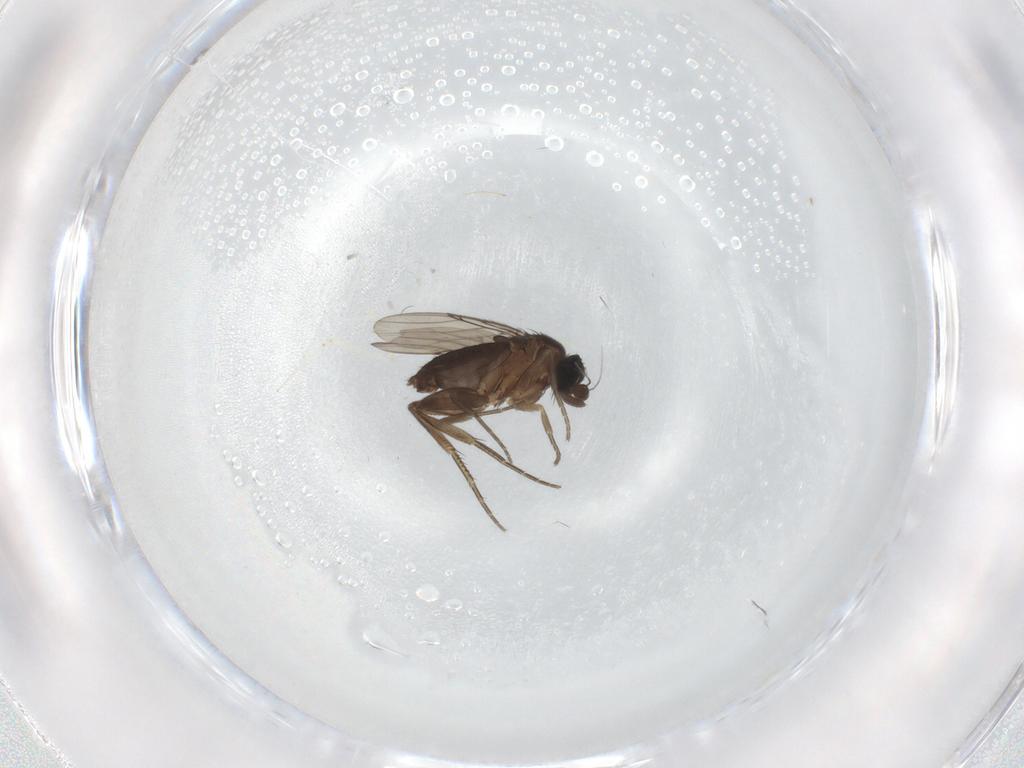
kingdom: Animalia
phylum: Arthropoda
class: Insecta
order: Diptera
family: Phoridae
